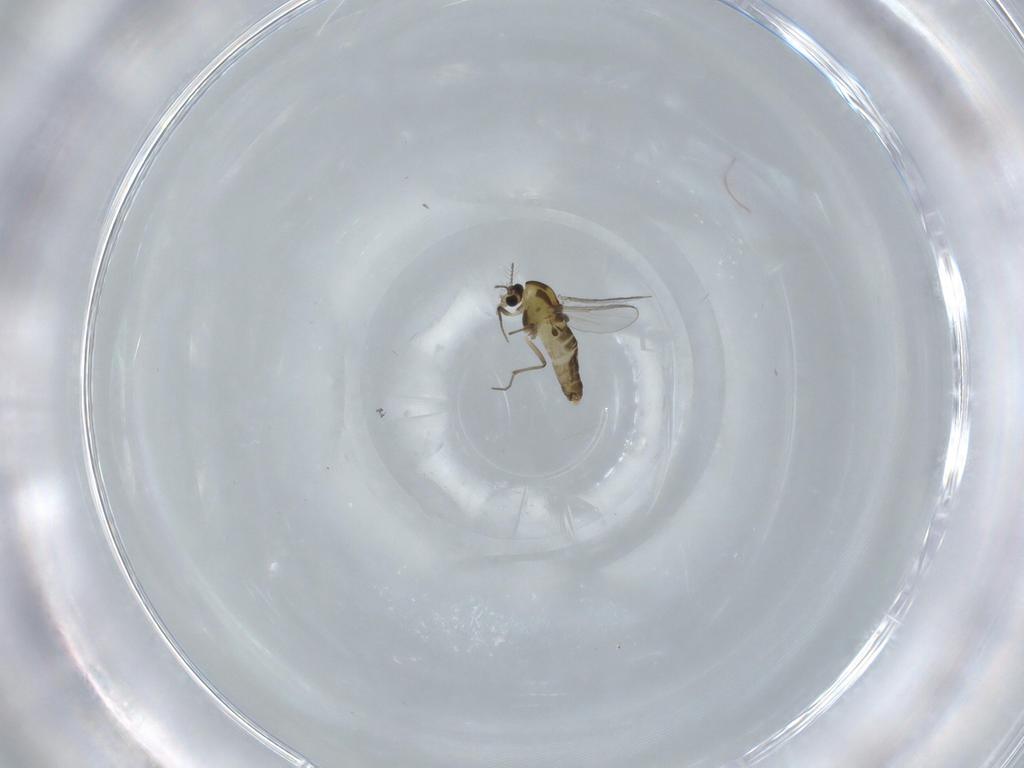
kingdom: Animalia
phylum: Arthropoda
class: Insecta
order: Diptera
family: Chironomidae
